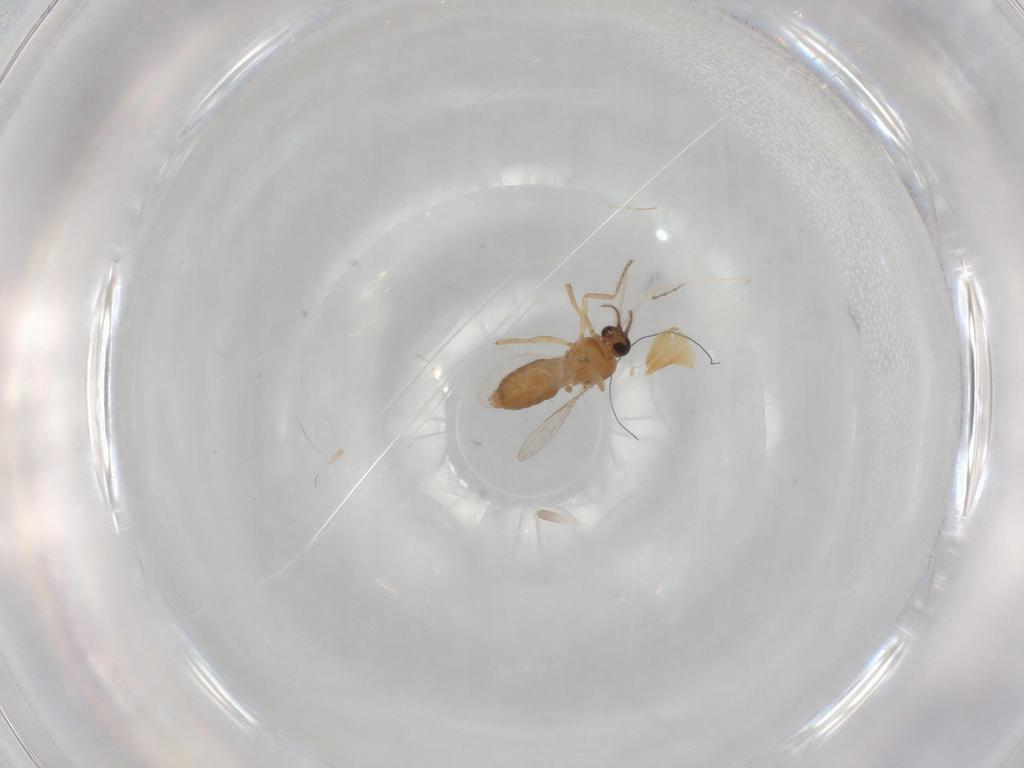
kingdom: Animalia
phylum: Arthropoda
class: Insecta
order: Diptera
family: Ceratopogonidae
